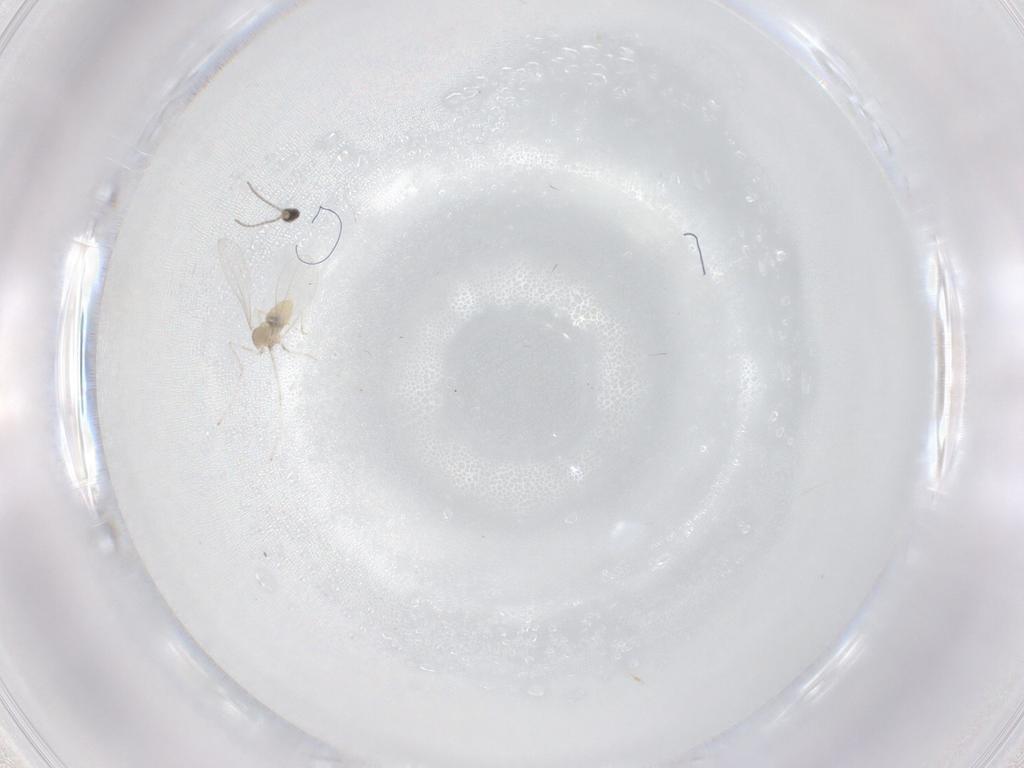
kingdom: Animalia
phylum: Arthropoda
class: Insecta
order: Diptera
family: Cecidomyiidae
